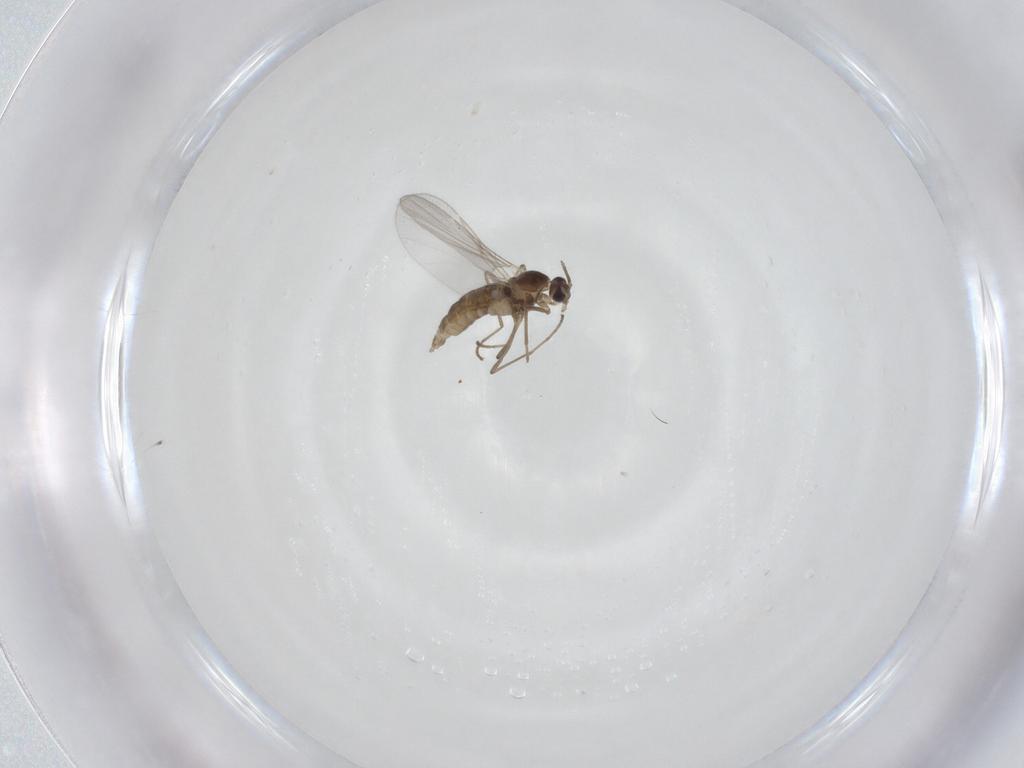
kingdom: Animalia
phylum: Arthropoda
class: Insecta
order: Diptera
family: Cecidomyiidae
